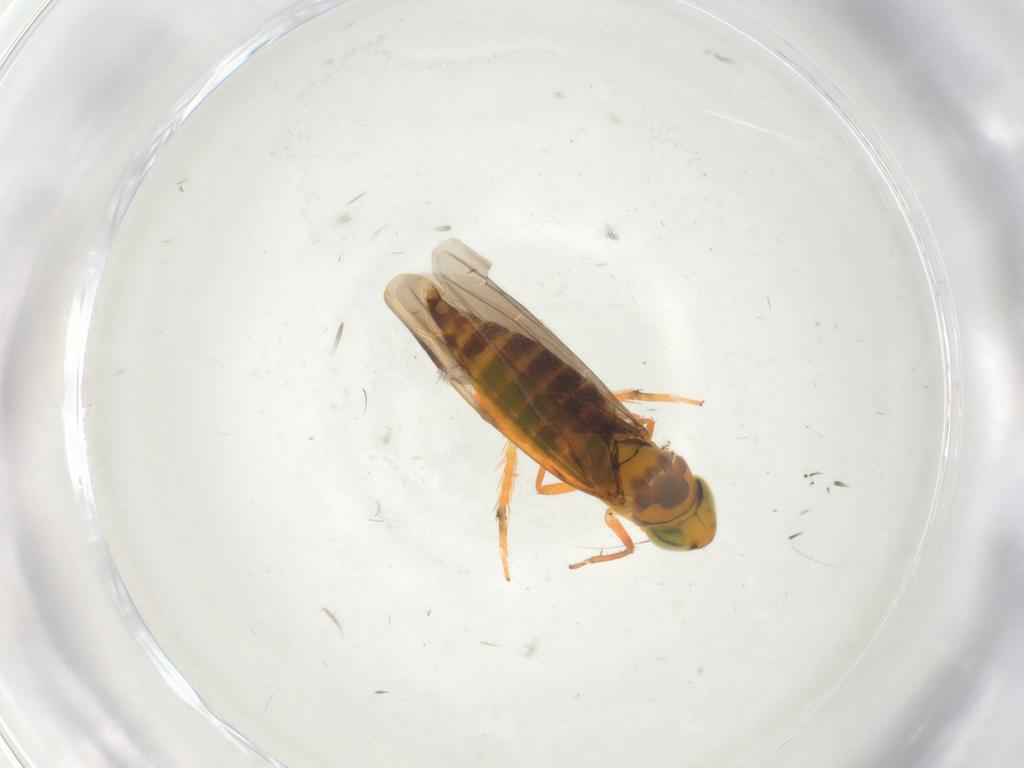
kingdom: Animalia
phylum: Arthropoda
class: Insecta
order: Hemiptera
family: Cicadellidae
